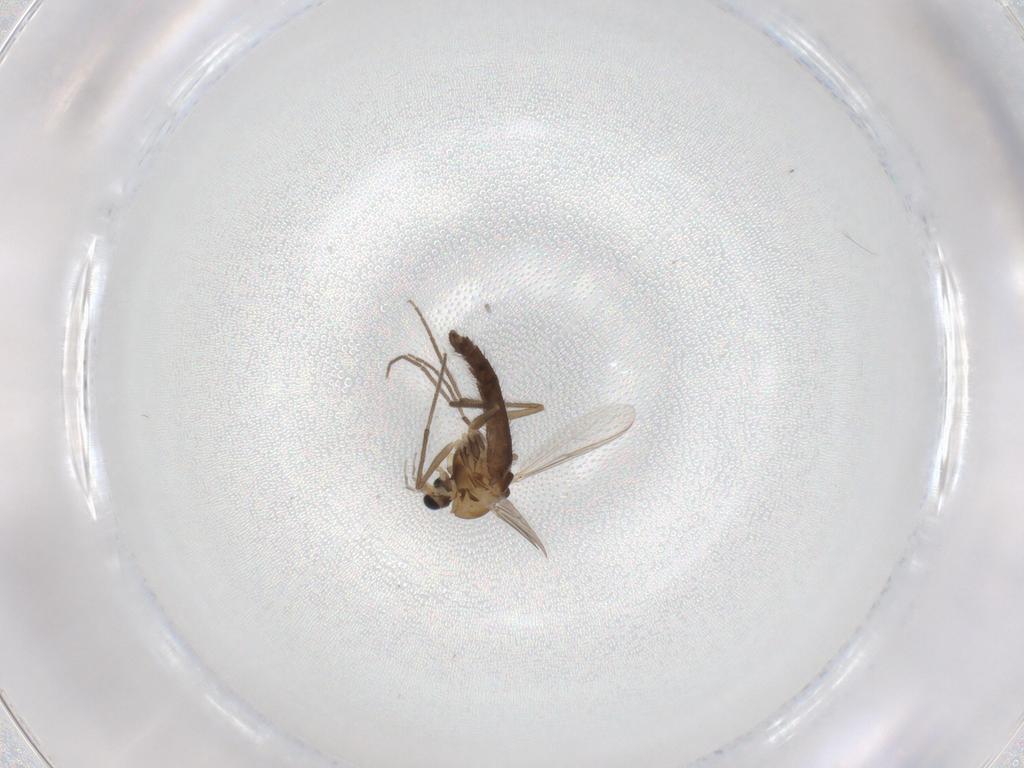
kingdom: Animalia
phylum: Arthropoda
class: Insecta
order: Diptera
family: Chironomidae
